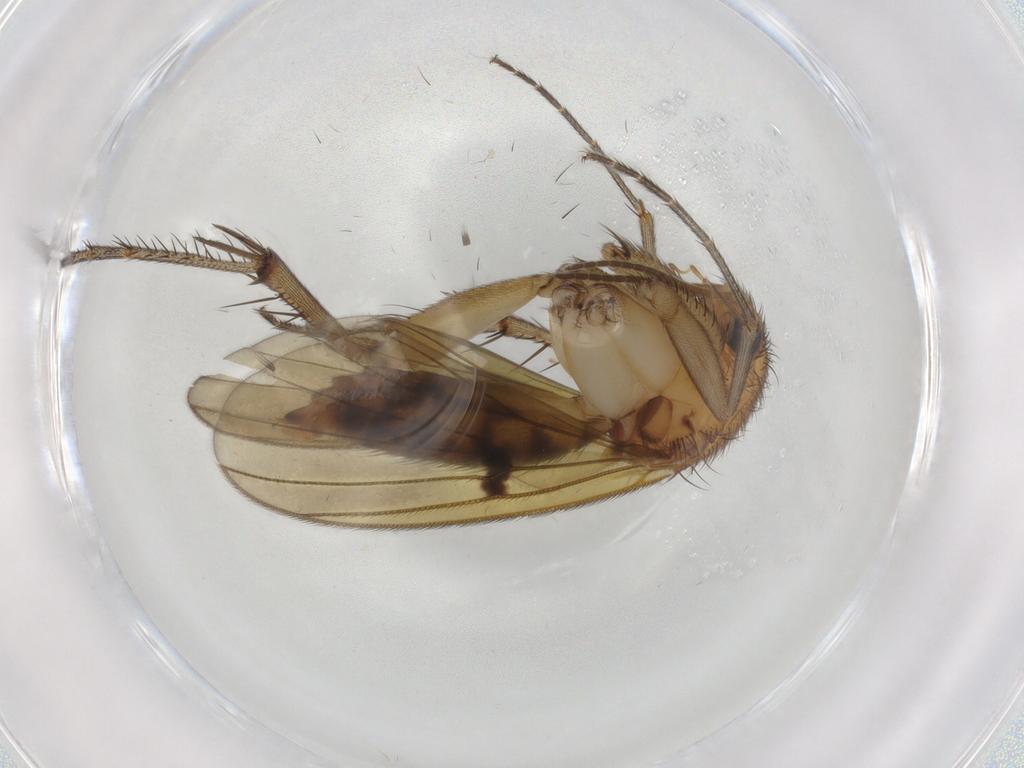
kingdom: Animalia
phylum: Arthropoda
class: Insecta
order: Diptera
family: Mycetophilidae
